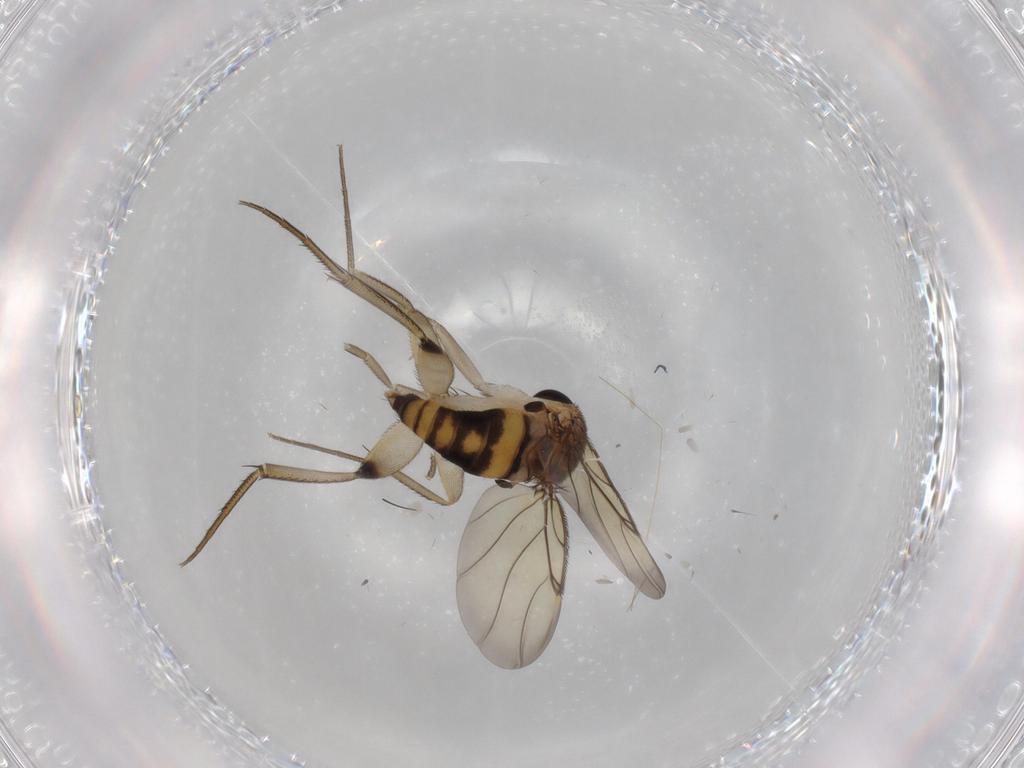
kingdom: Animalia
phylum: Arthropoda
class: Insecta
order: Diptera
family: Phoridae
